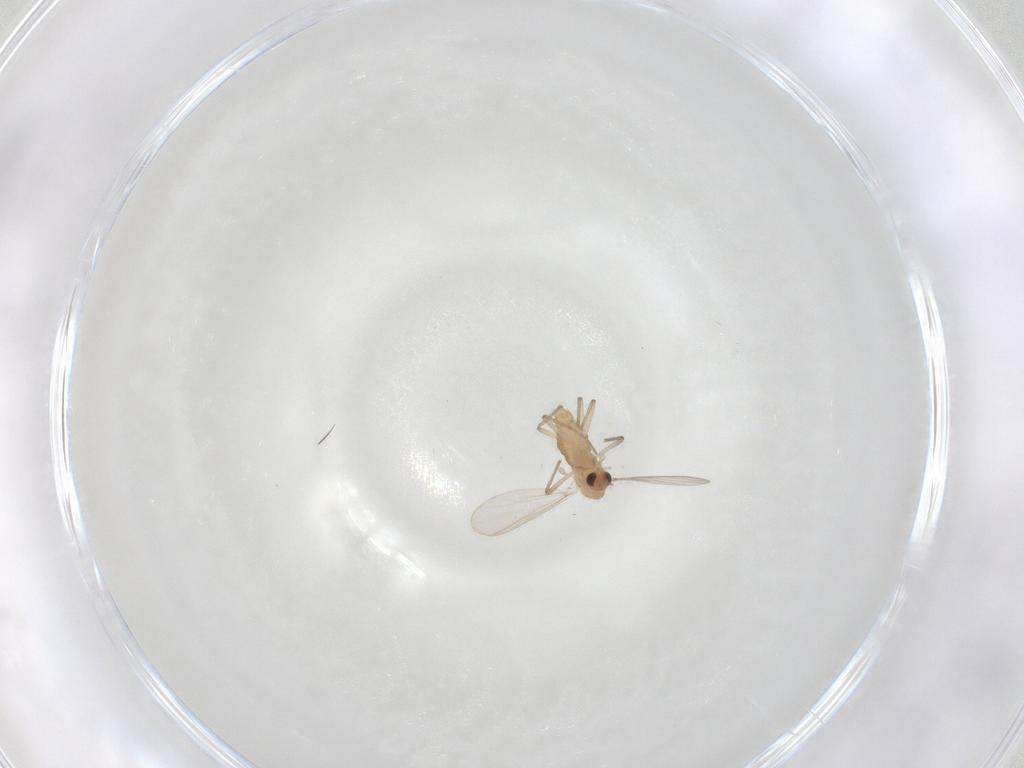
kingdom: Animalia
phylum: Arthropoda
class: Insecta
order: Diptera
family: Chironomidae
